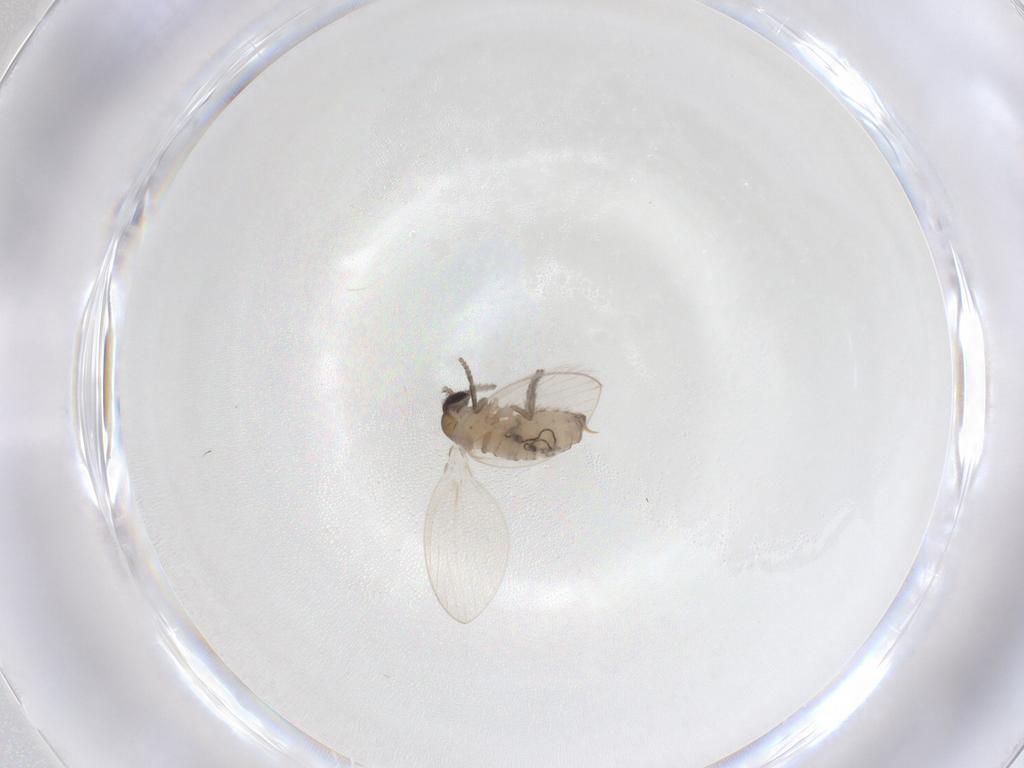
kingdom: Animalia
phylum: Arthropoda
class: Insecta
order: Diptera
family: Psychodidae
